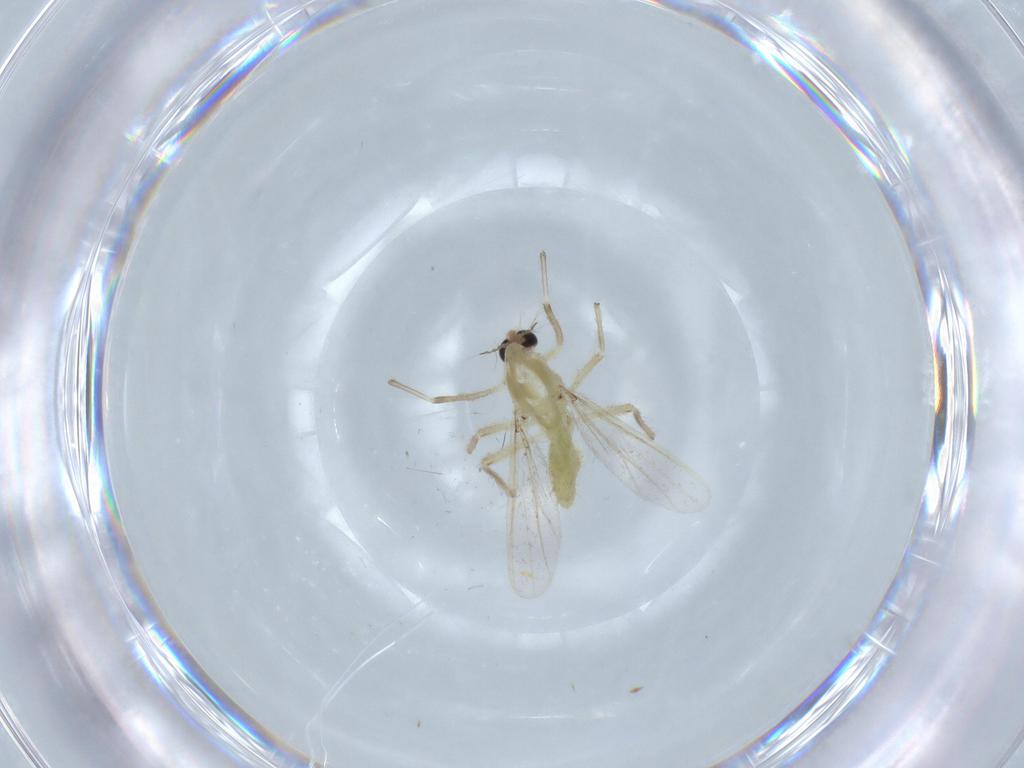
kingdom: Animalia
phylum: Arthropoda
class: Insecta
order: Diptera
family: Chironomidae
